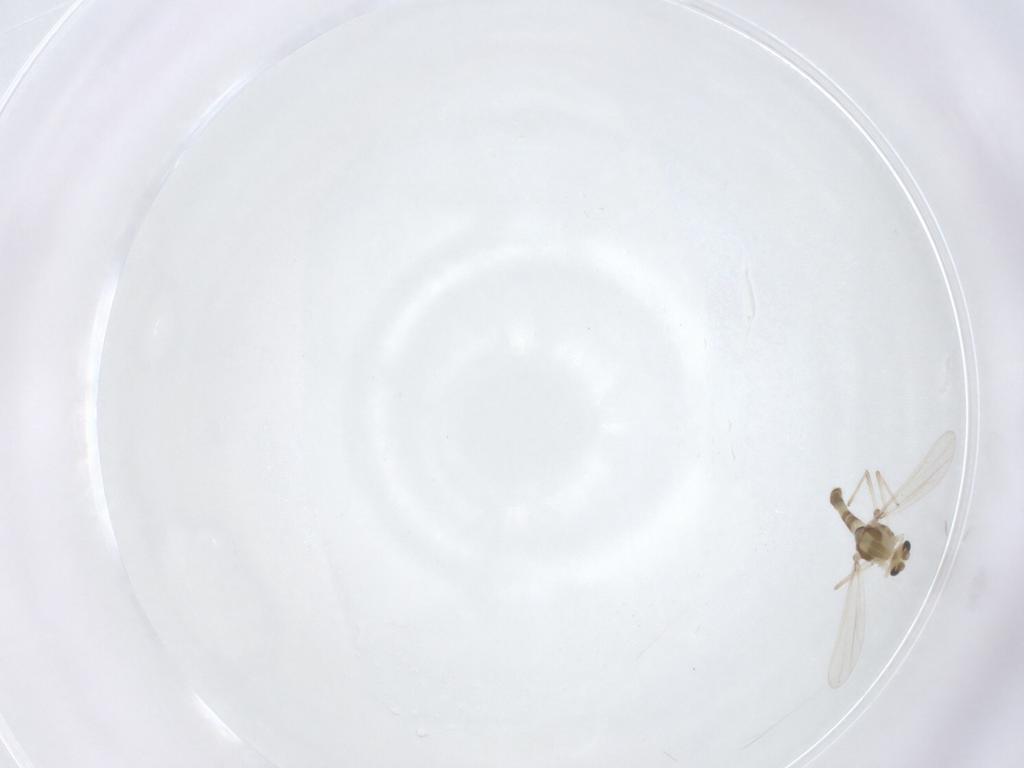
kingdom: Animalia
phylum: Arthropoda
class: Insecta
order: Diptera
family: Chironomidae
